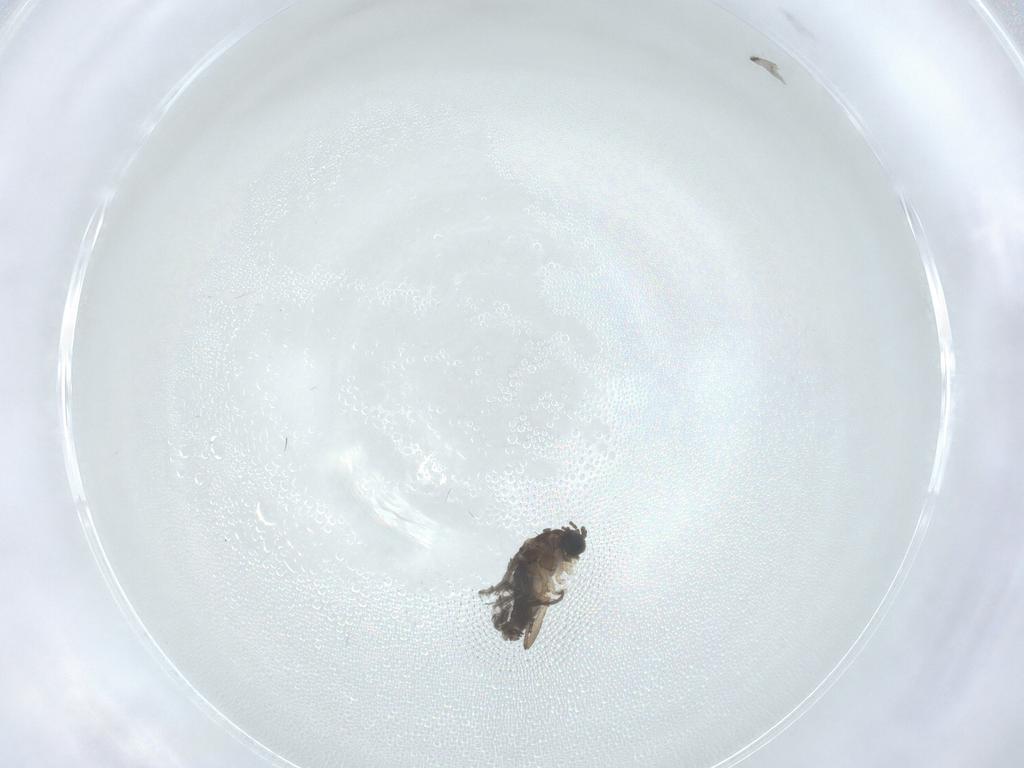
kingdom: Animalia
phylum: Arthropoda
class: Insecta
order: Diptera
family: Sciaridae
